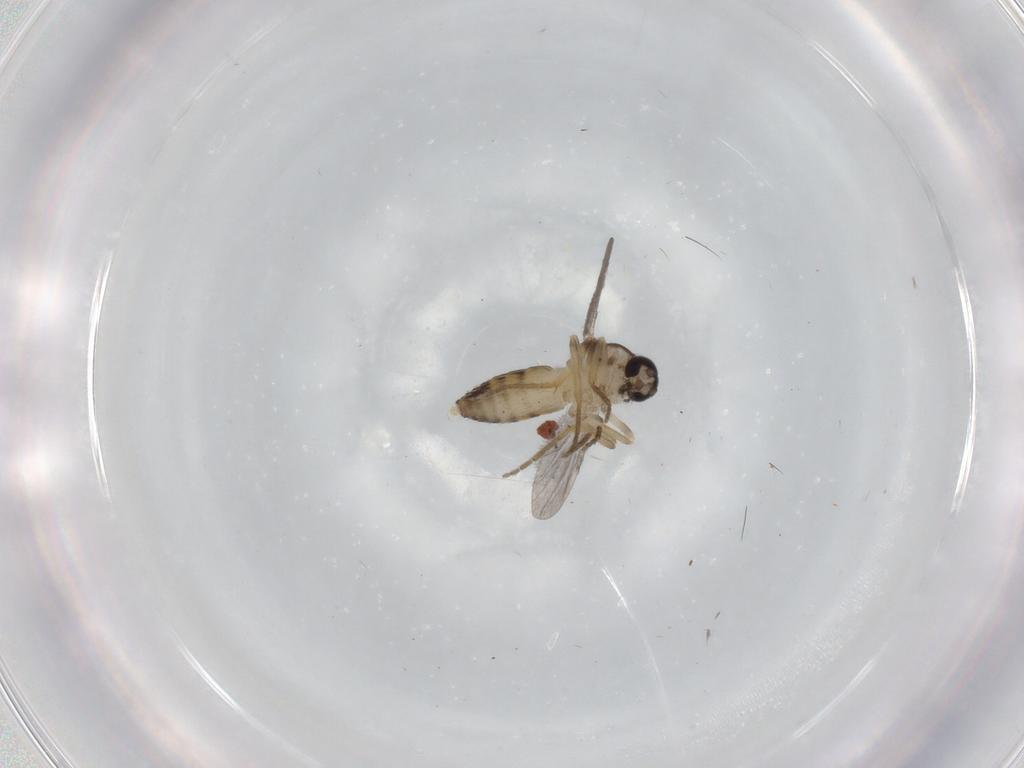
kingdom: Animalia
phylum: Arthropoda
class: Insecta
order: Diptera
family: Ceratopogonidae
